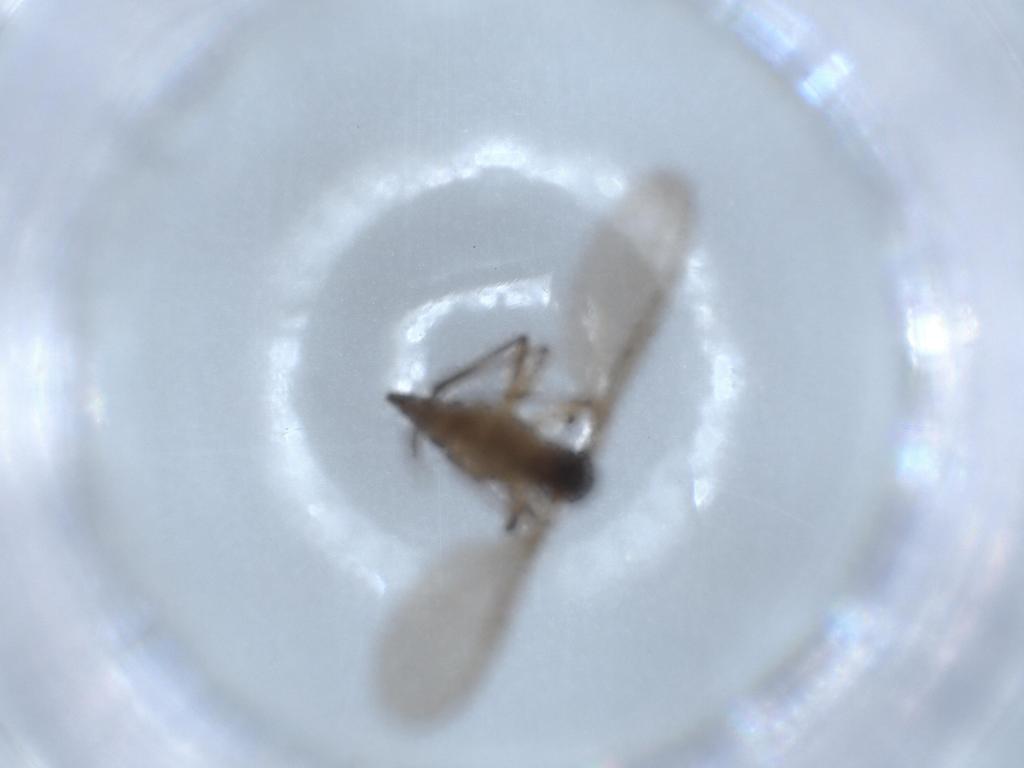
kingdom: Animalia
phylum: Arthropoda
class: Insecta
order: Diptera
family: Sciaridae
